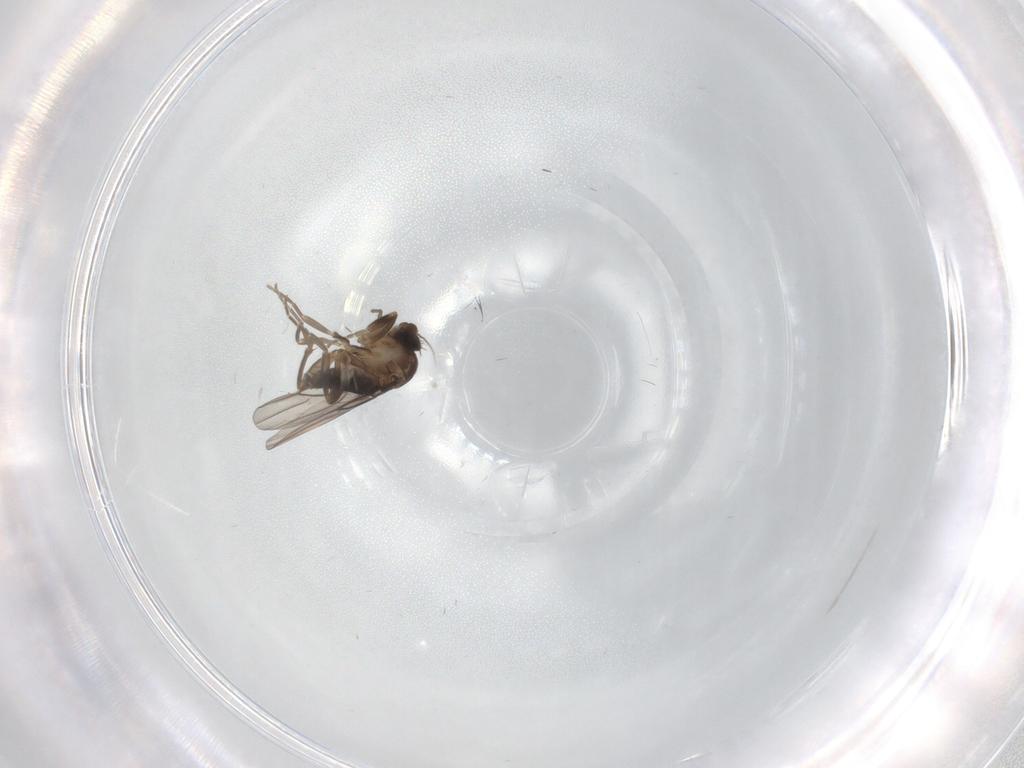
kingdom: Animalia
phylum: Arthropoda
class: Insecta
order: Diptera
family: Phoridae
